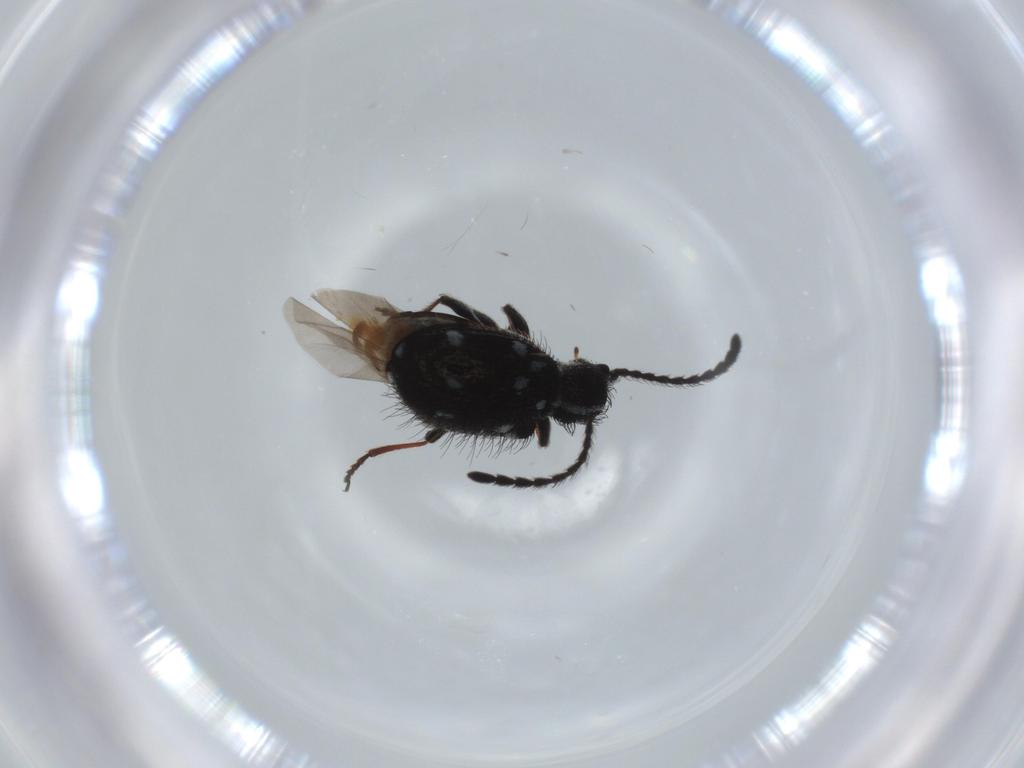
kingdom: Animalia
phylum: Arthropoda
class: Insecta
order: Coleoptera
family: Ptinidae
